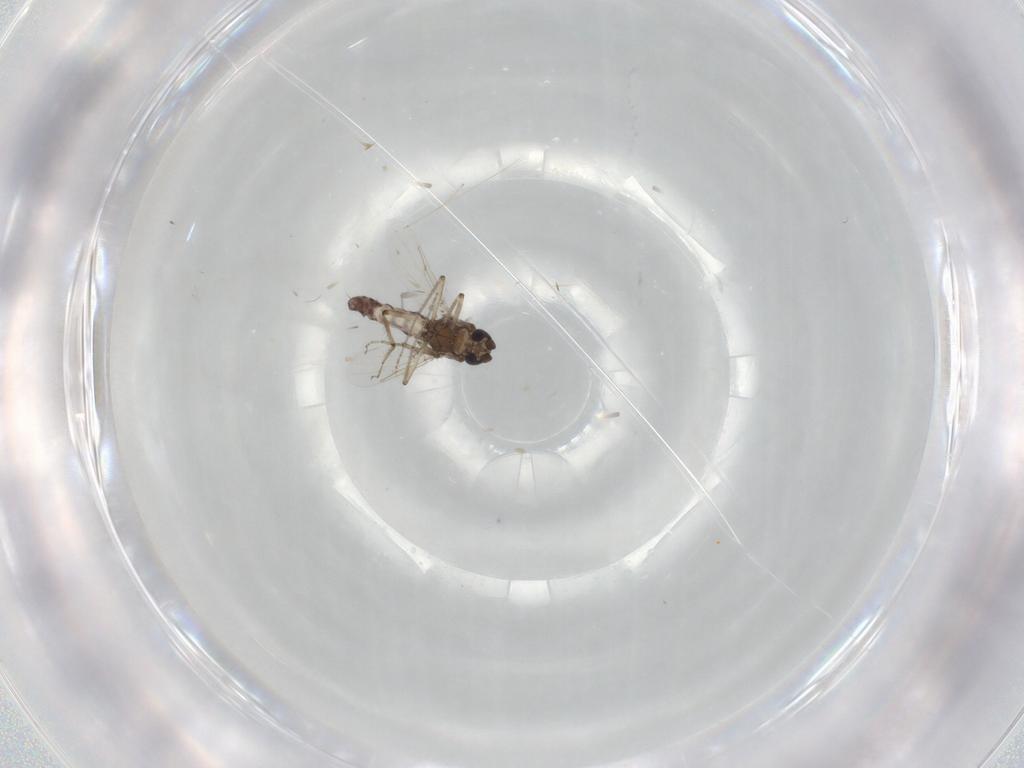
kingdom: Animalia
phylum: Arthropoda
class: Insecta
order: Diptera
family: Ceratopogonidae
